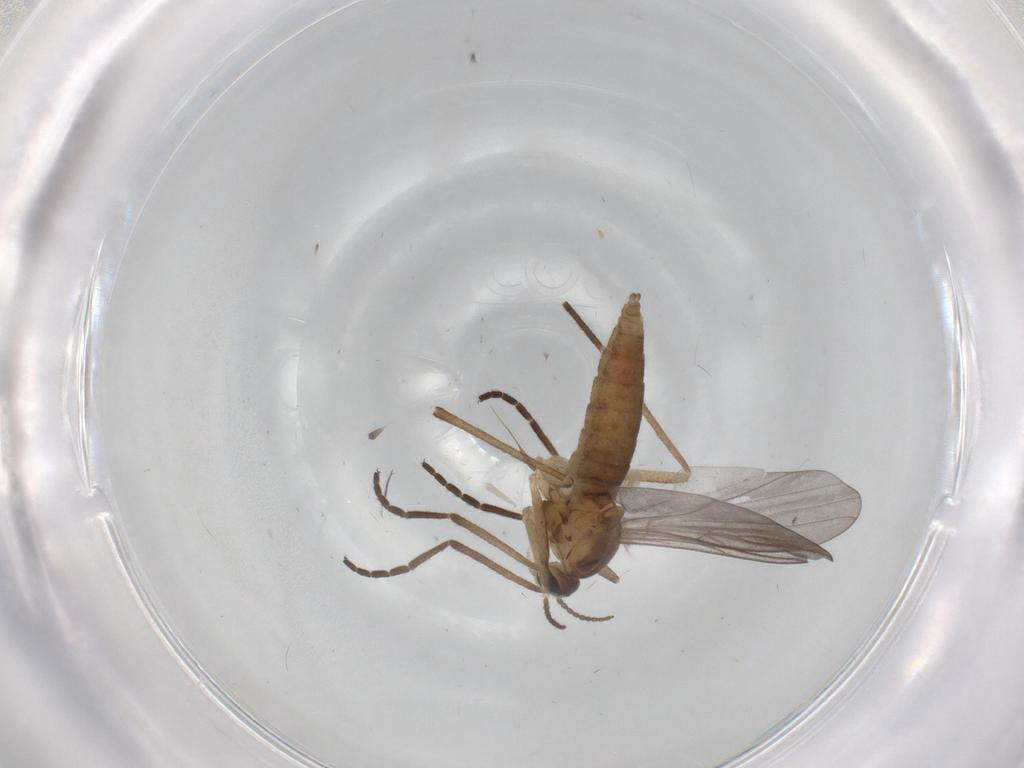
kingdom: Animalia
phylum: Arthropoda
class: Insecta
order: Diptera
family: Cecidomyiidae
